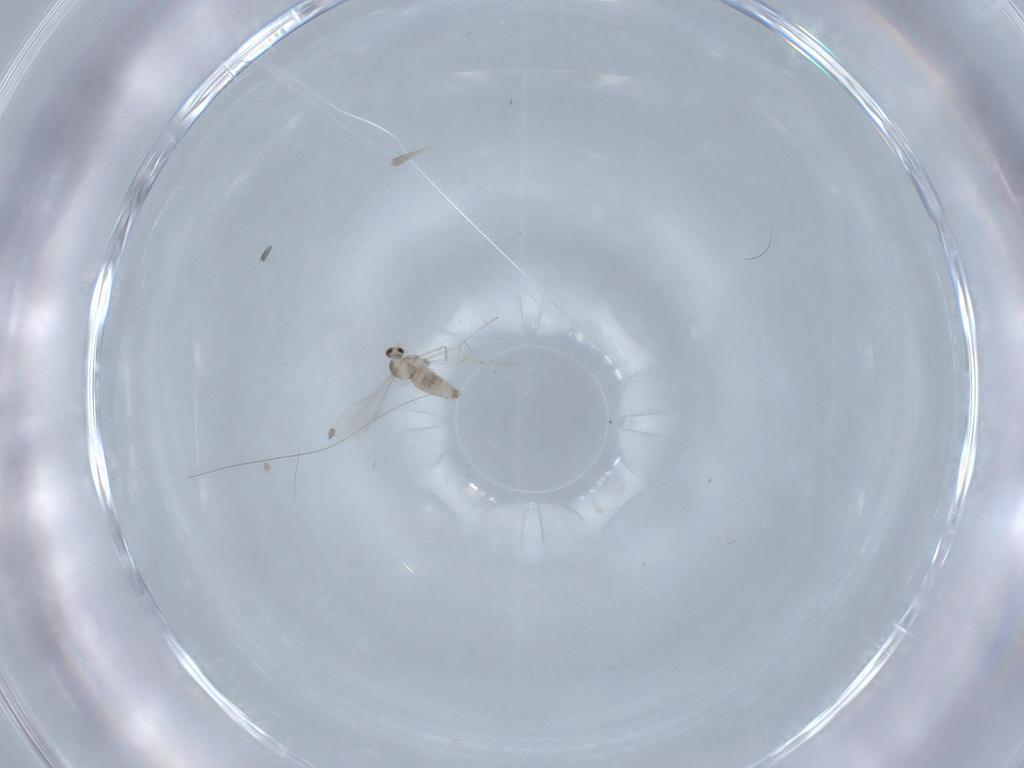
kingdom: Animalia
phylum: Arthropoda
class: Insecta
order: Diptera
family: Cecidomyiidae
